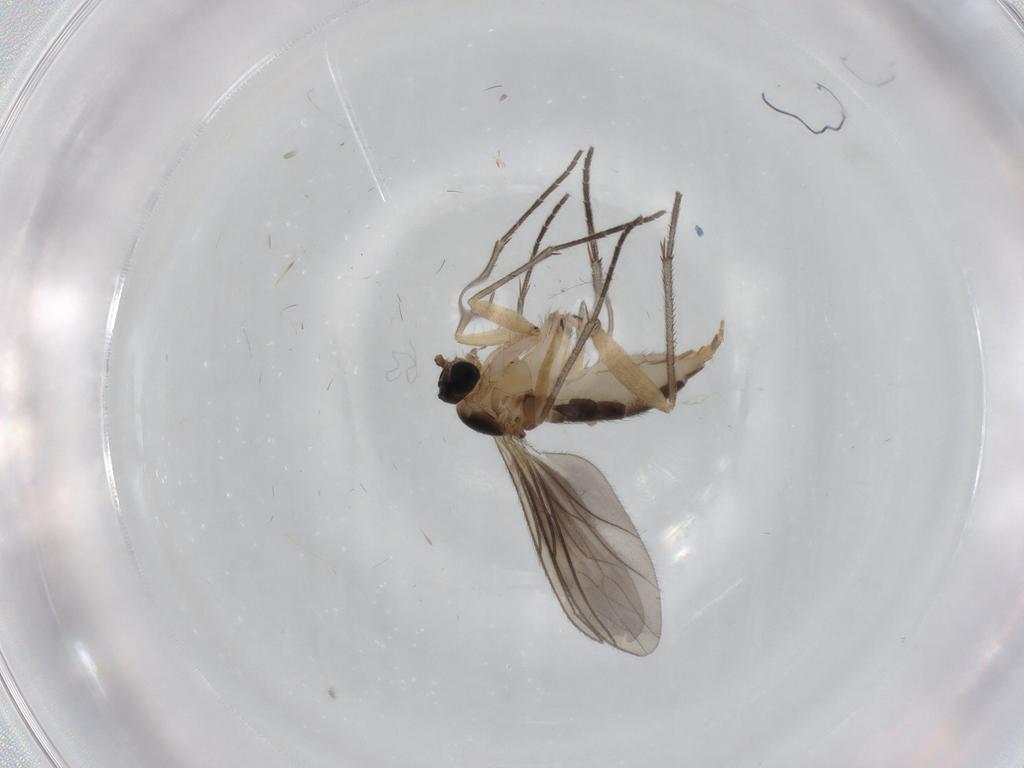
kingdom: Animalia
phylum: Arthropoda
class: Insecta
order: Diptera
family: Sciaridae
